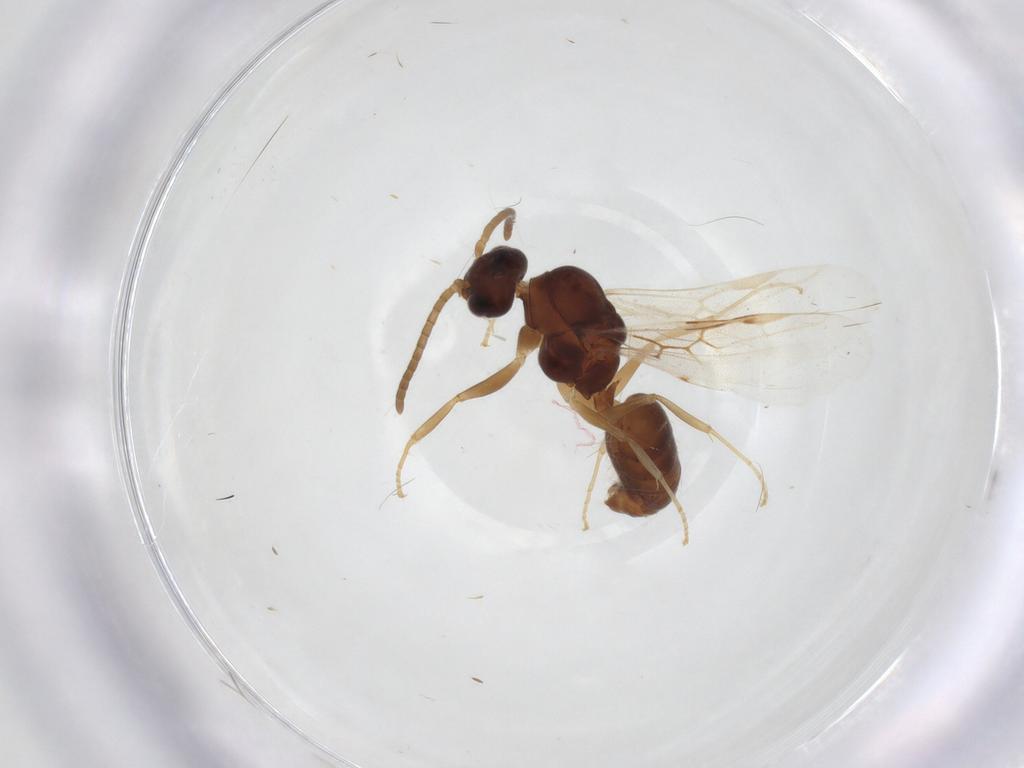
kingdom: Animalia
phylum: Arthropoda
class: Insecta
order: Hymenoptera
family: Formicidae
